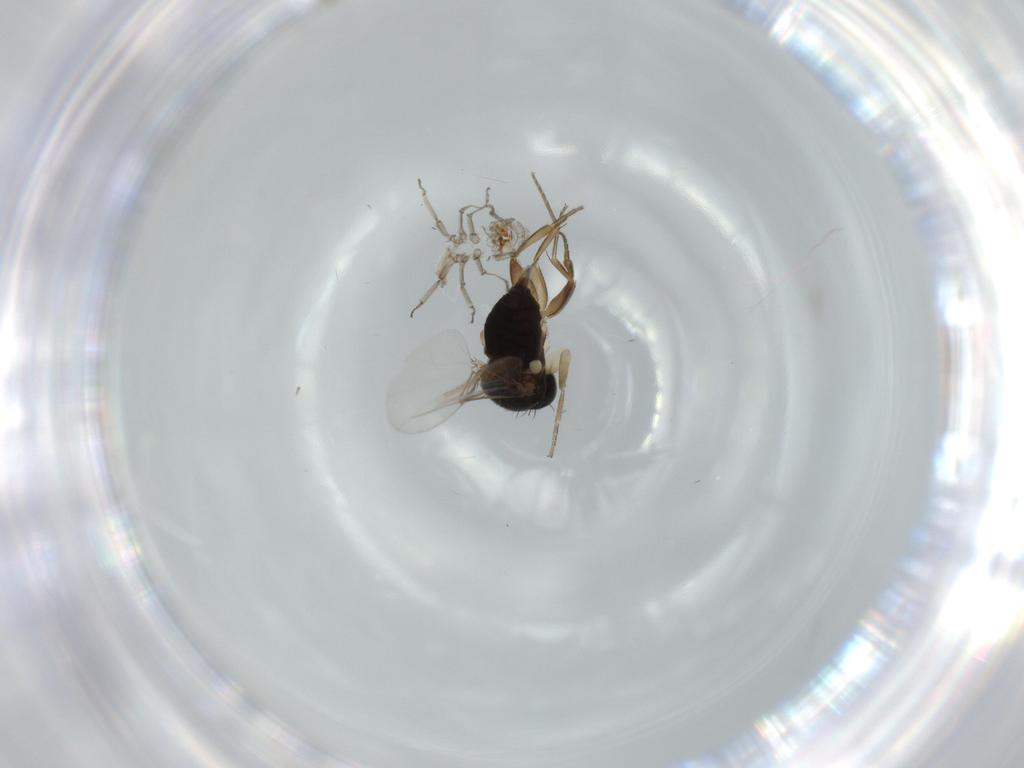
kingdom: Animalia
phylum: Arthropoda
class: Insecta
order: Diptera
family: Phoridae
